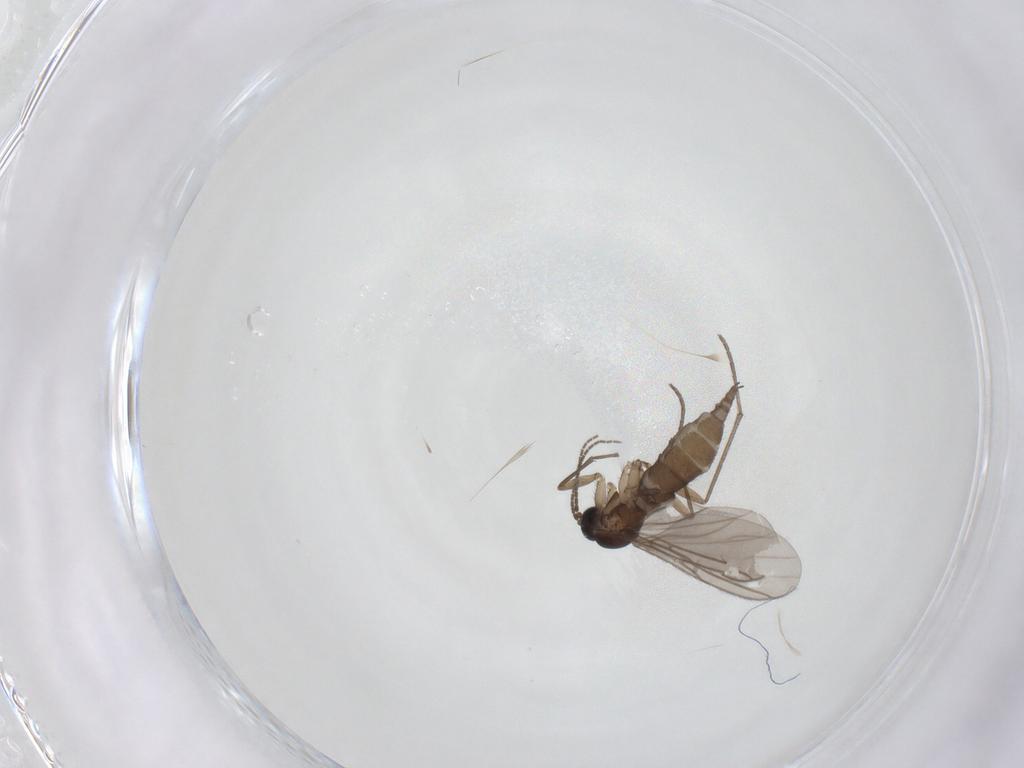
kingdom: Animalia
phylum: Arthropoda
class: Insecta
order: Diptera
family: Sciaridae
